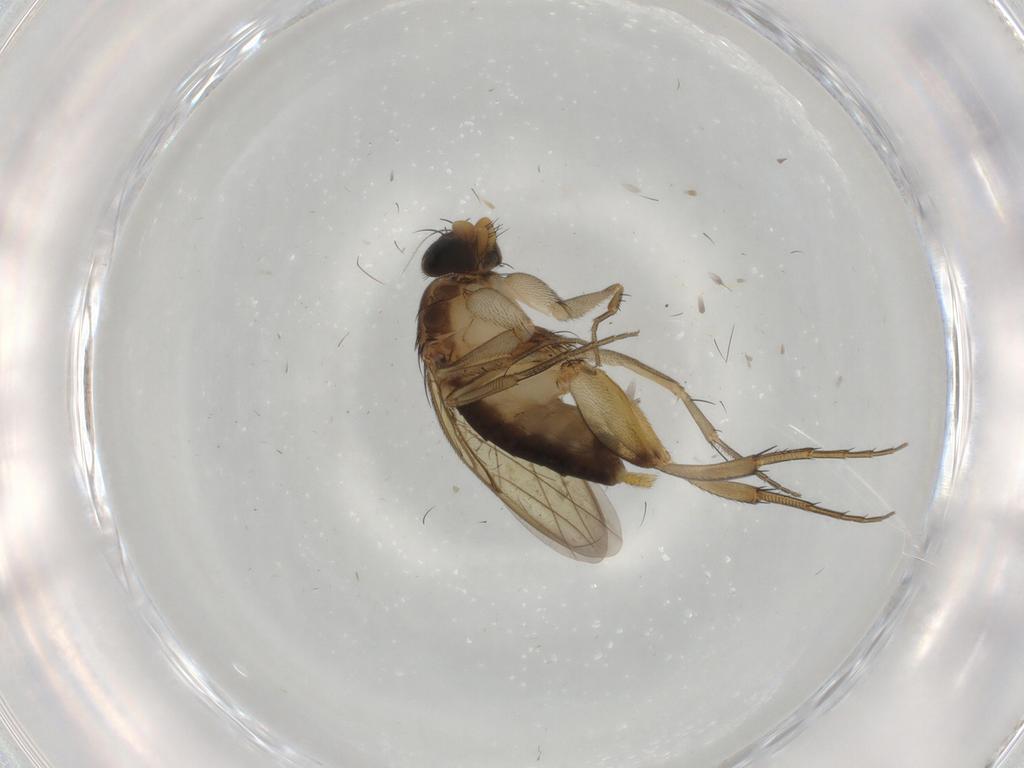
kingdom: Animalia
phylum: Arthropoda
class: Insecta
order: Diptera
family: Phoridae
